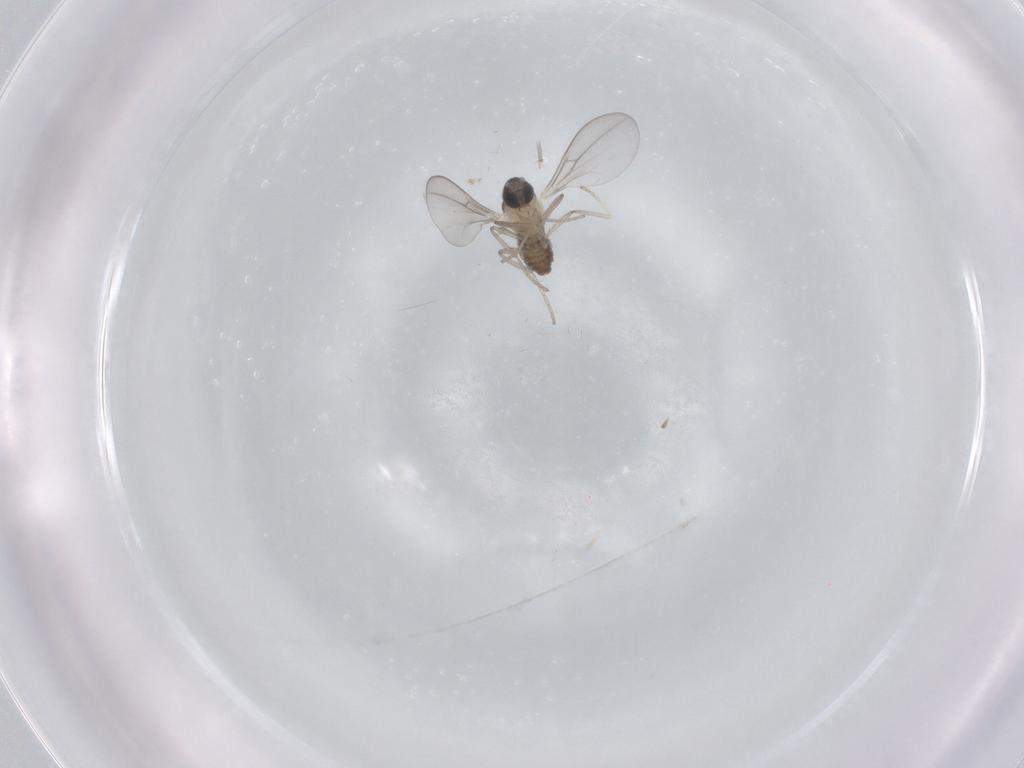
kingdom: Animalia
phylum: Arthropoda
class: Insecta
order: Diptera
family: Cecidomyiidae
